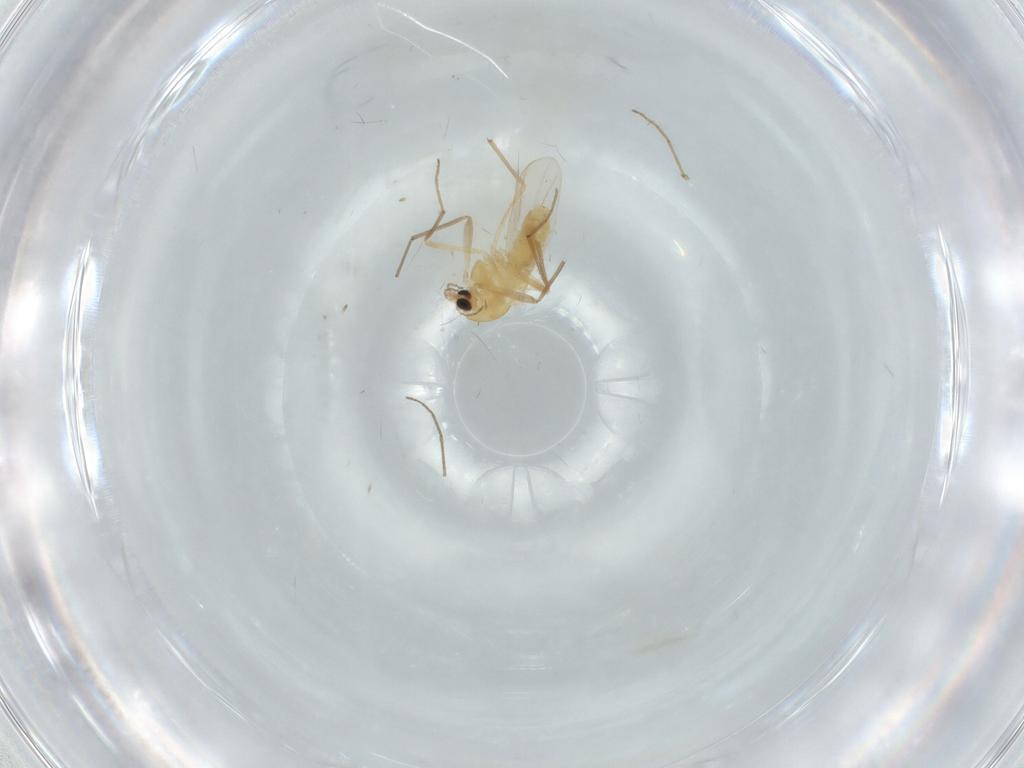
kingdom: Animalia
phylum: Arthropoda
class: Insecta
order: Diptera
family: Chironomidae
